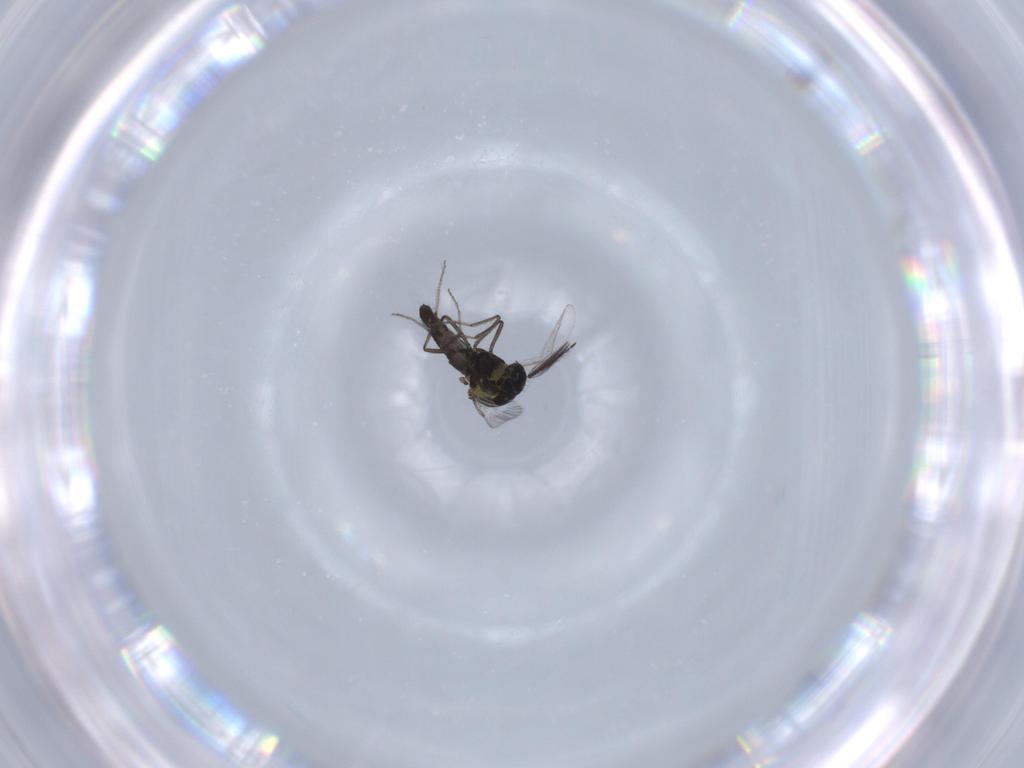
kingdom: Animalia
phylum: Arthropoda
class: Insecta
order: Diptera
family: Ceratopogonidae
